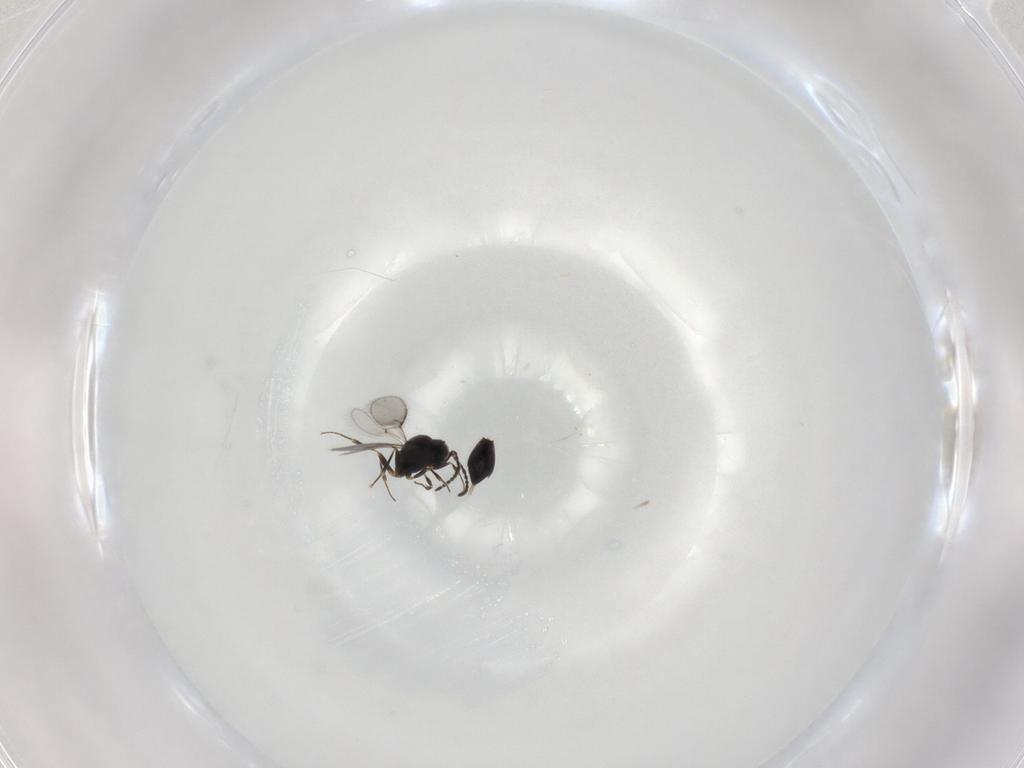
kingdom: Animalia
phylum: Arthropoda
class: Insecta
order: Hymenoptera
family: Scelionidae
